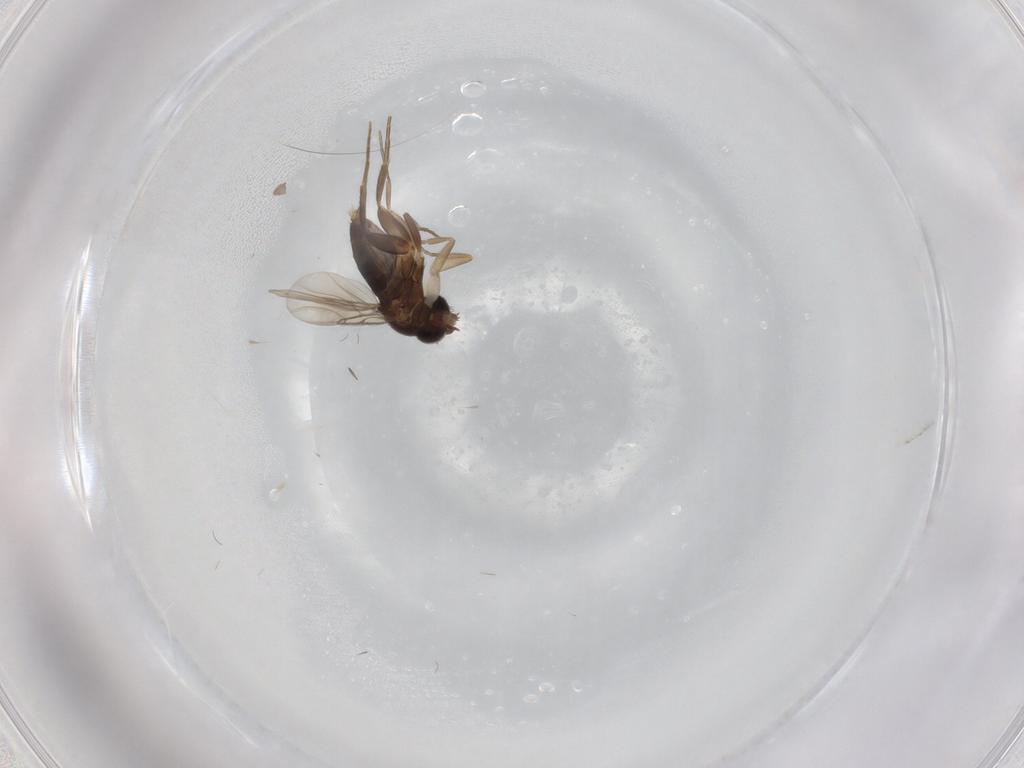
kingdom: Animalia
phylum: Arthropoda
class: Insecta
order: Diptera
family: Phoridae
